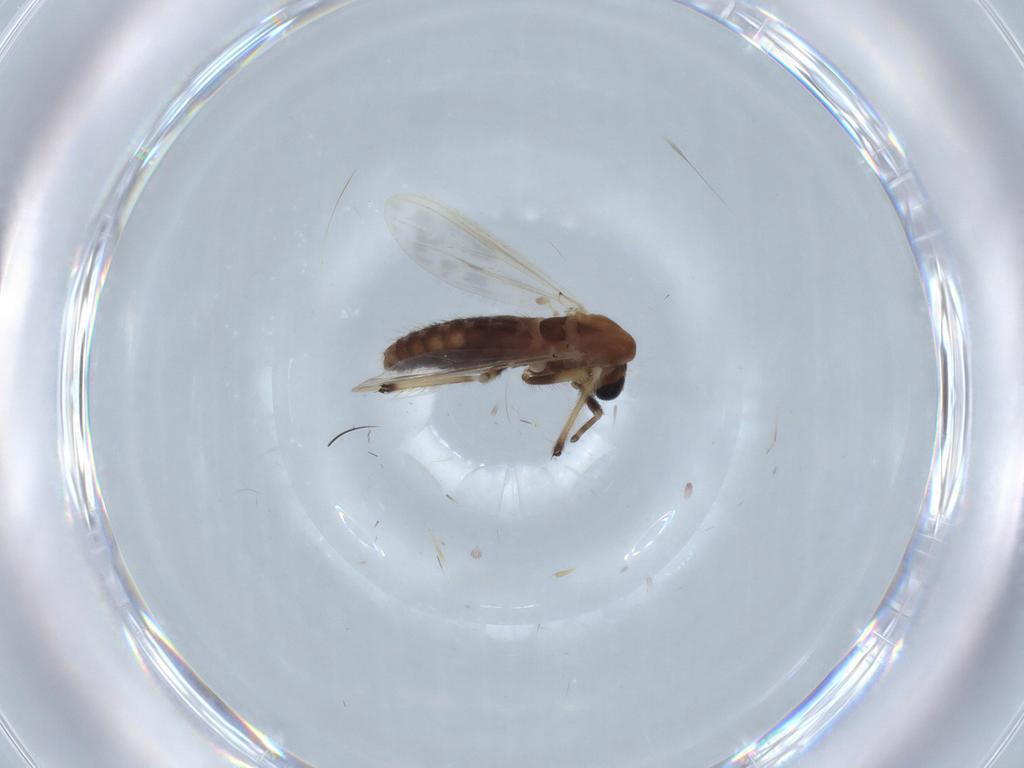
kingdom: Animalia
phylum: Arthropoda
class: Insecta
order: Diptera
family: Chironomidae
